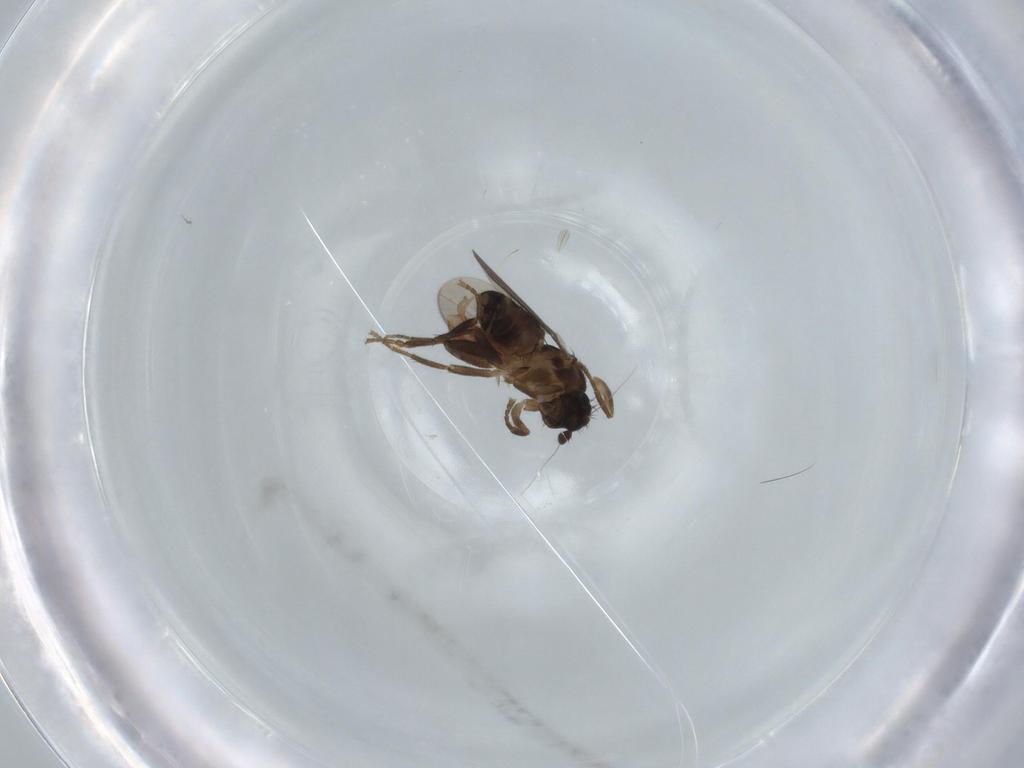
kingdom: Animalia
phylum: Arthropoda
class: Insecta
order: Diptera
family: Sphaeroceridae
